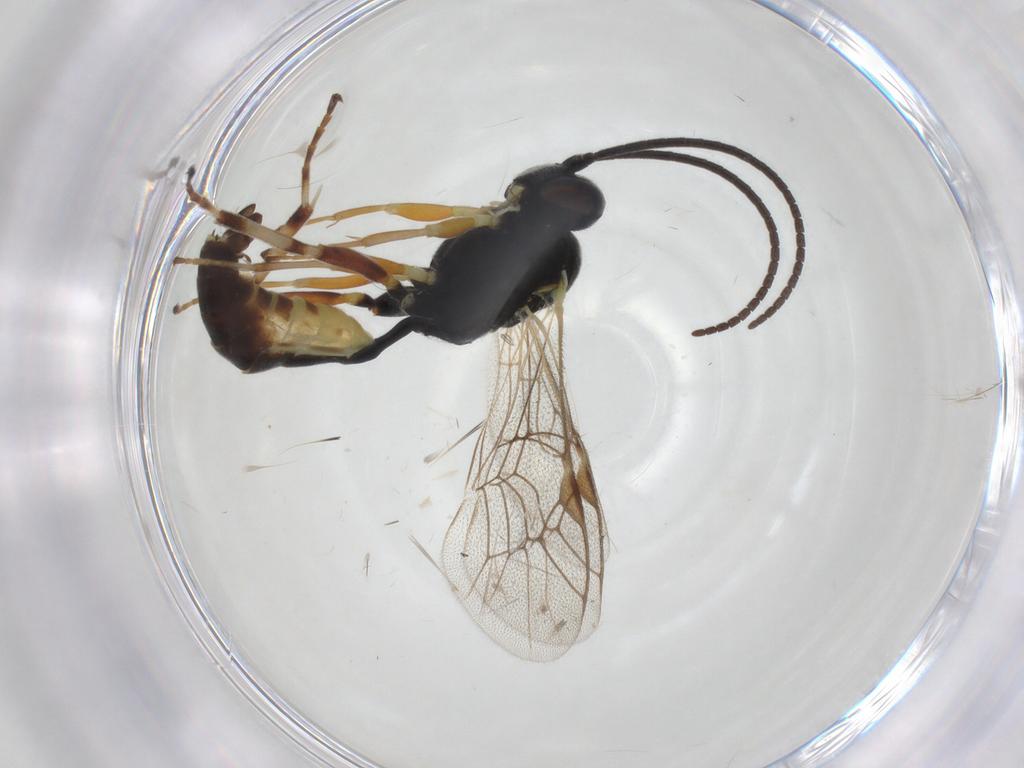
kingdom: Animalia
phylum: Arthropoda
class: Insecta
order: Hymenoptera
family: Ichneumonidae
